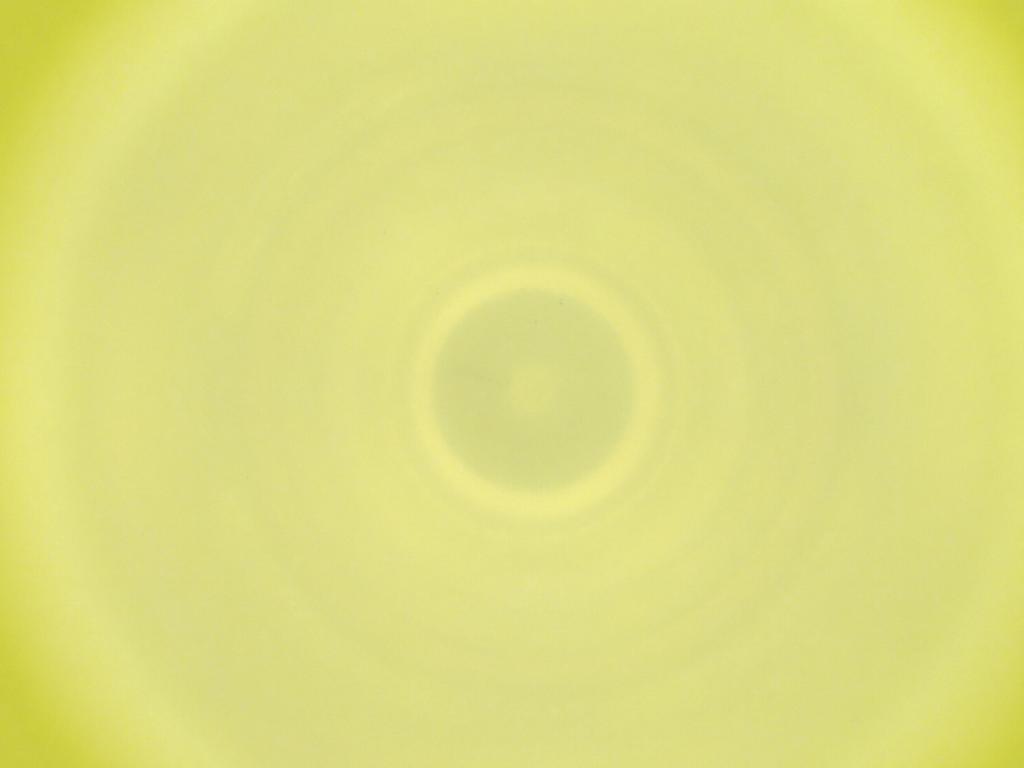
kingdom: Animalia
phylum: Arthropoda
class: Insecta
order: Diptera
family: Cecidomyiidae
